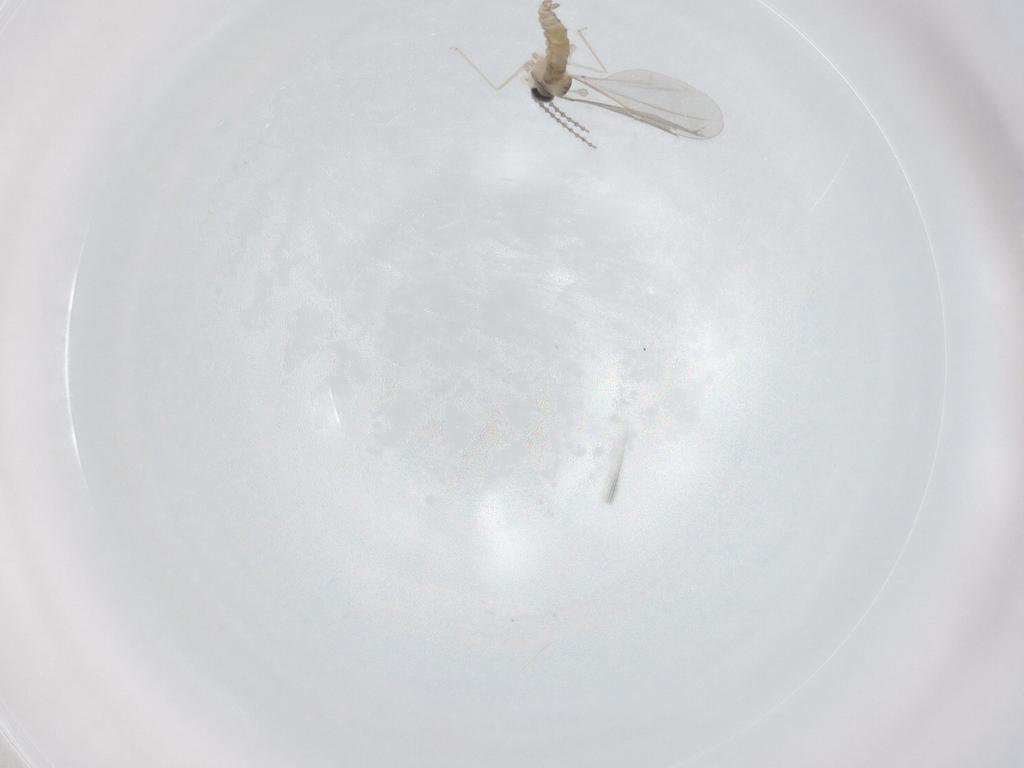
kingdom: Animalia
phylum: Arthropoda
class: Insecta
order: Diptera
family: Cecidomyiidae
